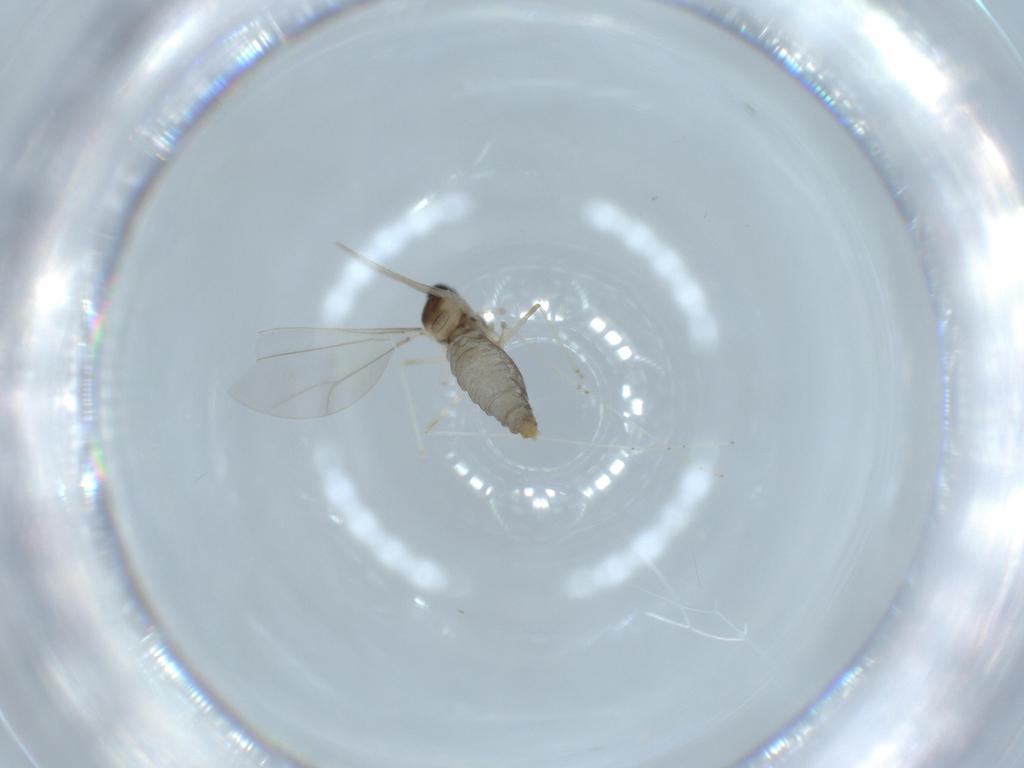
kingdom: Animalia
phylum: Arthropoda
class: Insecta
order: Diptera
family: Cecidomyiidae
